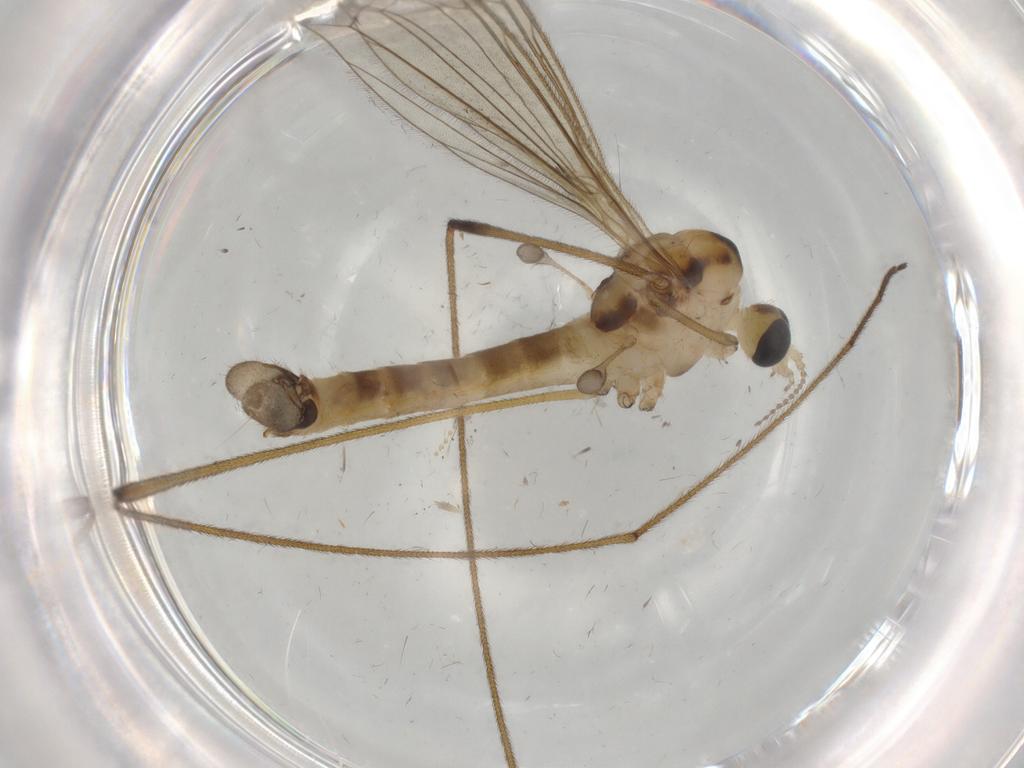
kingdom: Animalia
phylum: Arthropoda
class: Insecta
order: Diptera
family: Cecidomyiidae
